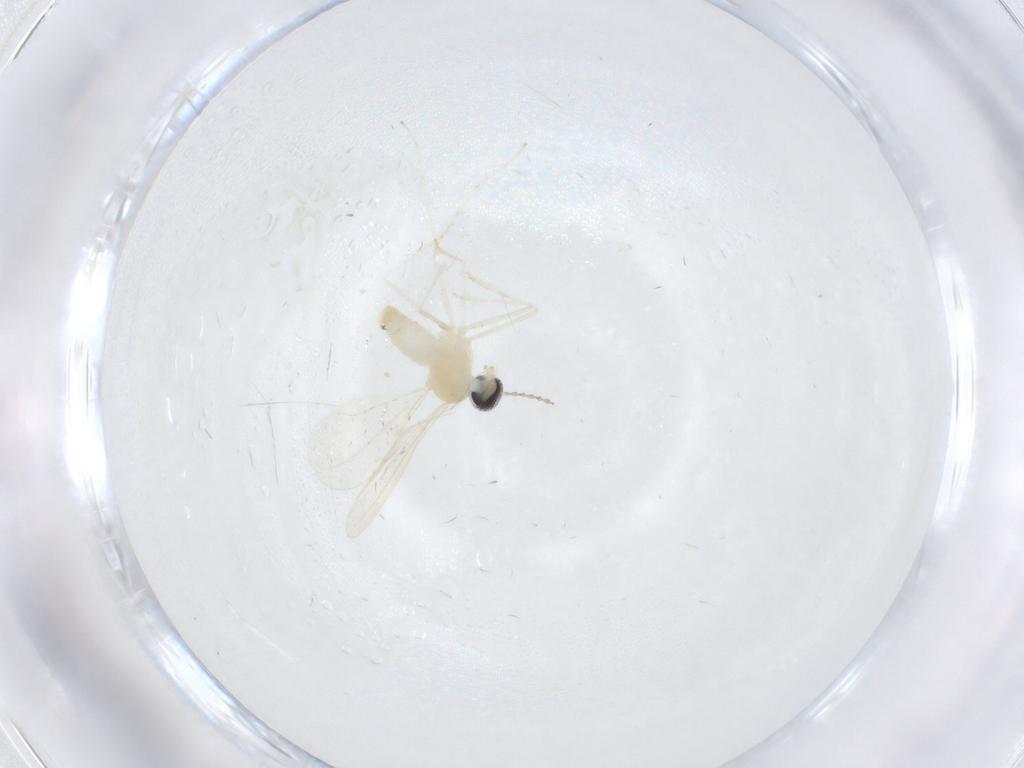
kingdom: Animalia
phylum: Arthropoda
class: Insecta
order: Diptera
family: Cecidomyiidae
